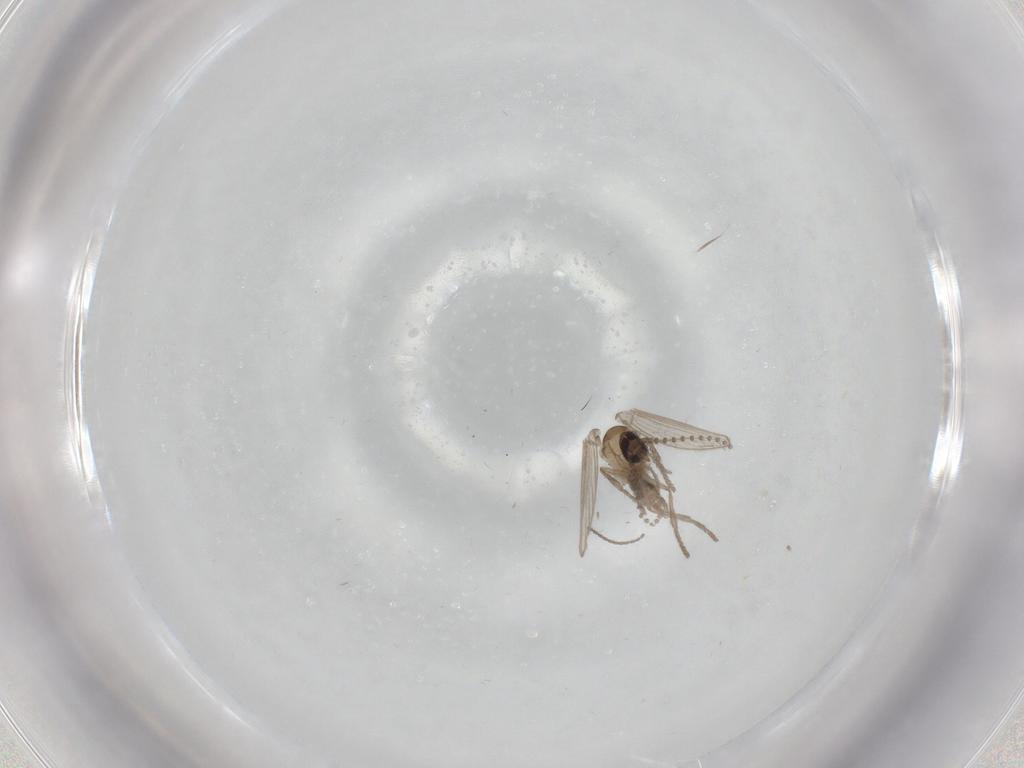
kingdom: Animalia
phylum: Arthropoda
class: Insecta
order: Diptera
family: Psychodidae
